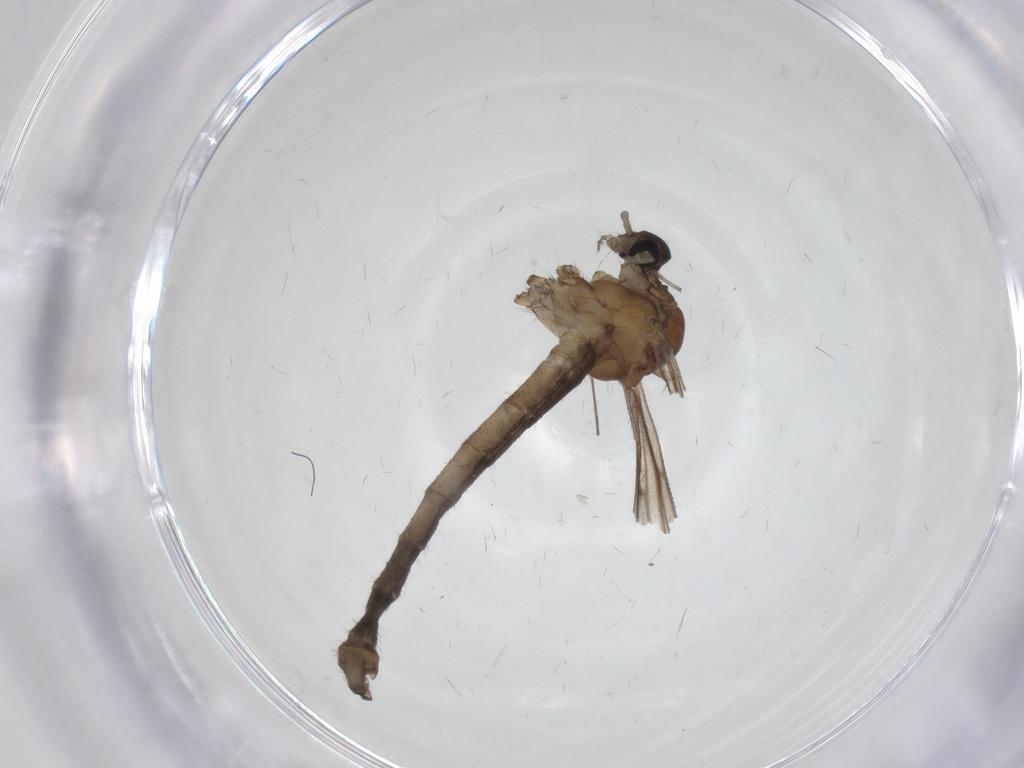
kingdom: Animalia
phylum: Arthropoda
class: Insecta
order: Diptera
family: Limoniidae
